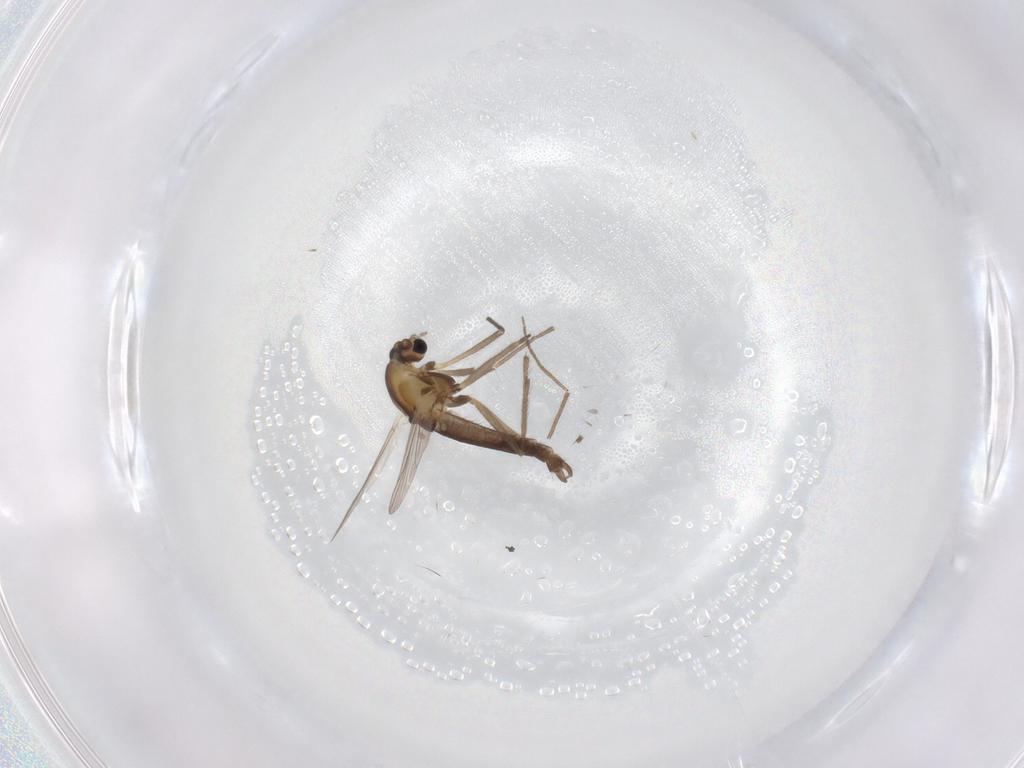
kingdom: Animalia
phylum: Arthropoda
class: Insecta
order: Diptera
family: Chironomidae
